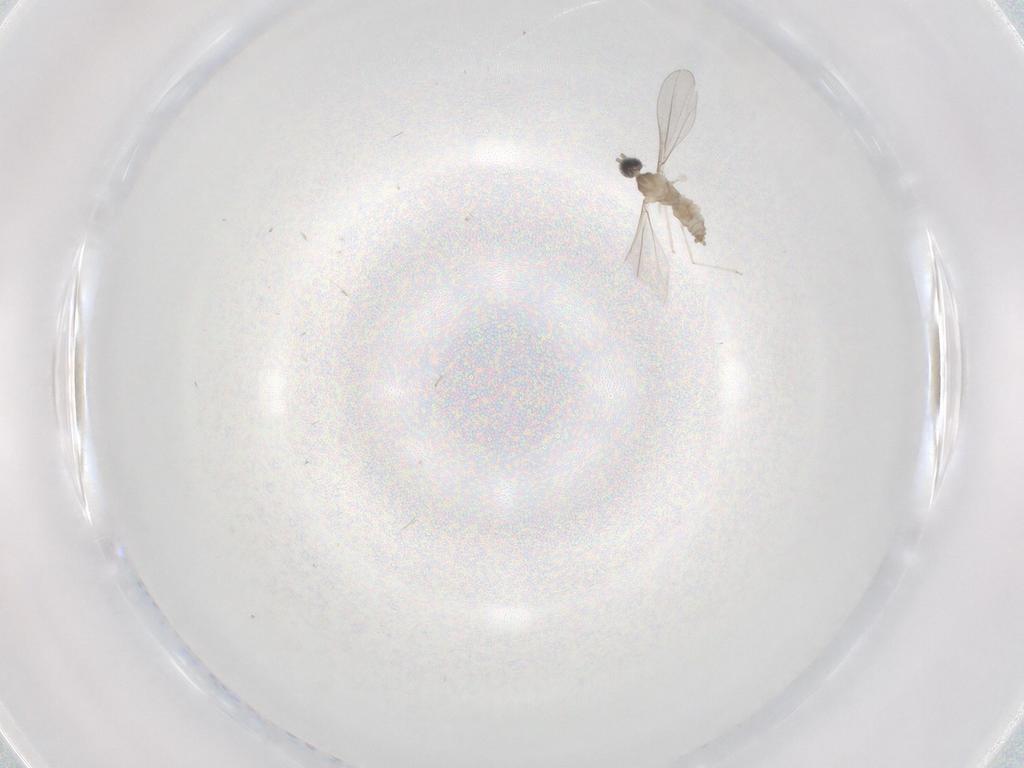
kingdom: Animalia
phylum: Arthropoda
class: Insecta
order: Diptera
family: Cecidomyiidae
